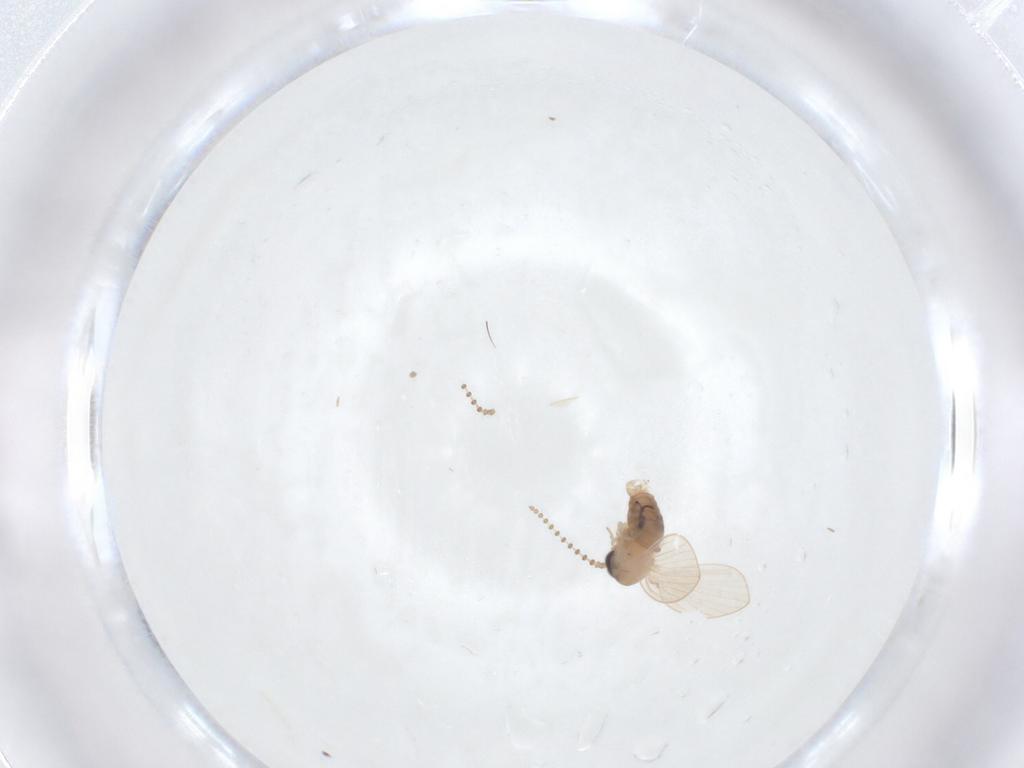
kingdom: Animalia
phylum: Arthropoda
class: Insecta
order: Diptera
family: Psychodidae
